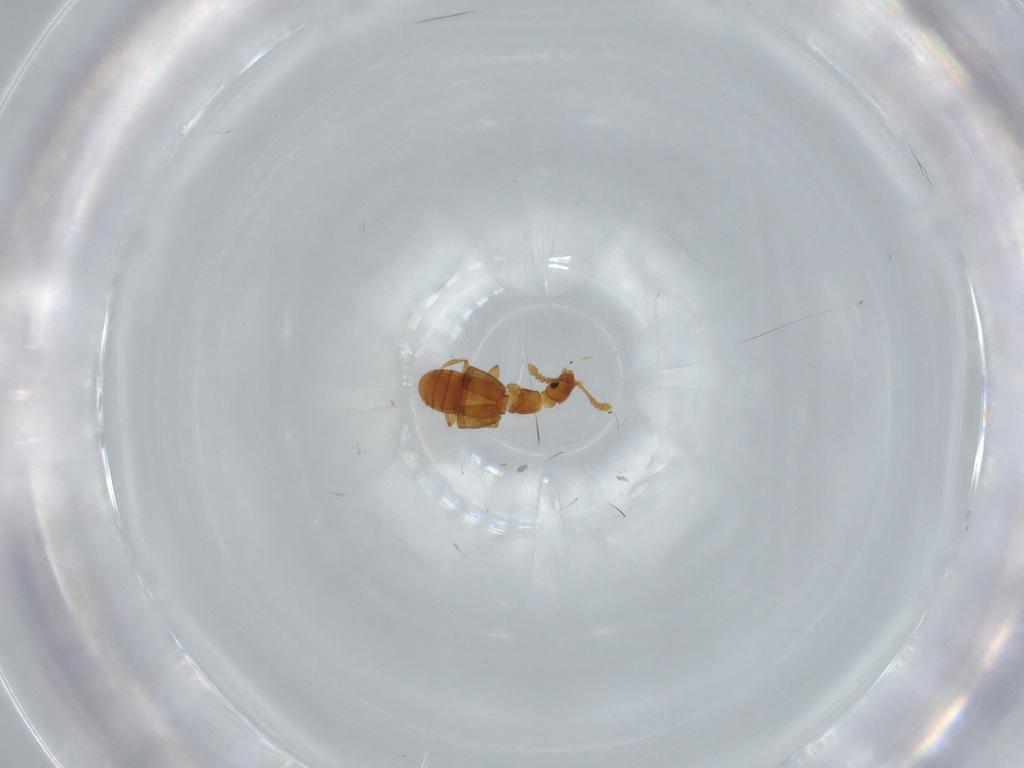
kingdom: Animalia
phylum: Arthropoda
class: Insecta
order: Coleoptera
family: Staphylinidae
